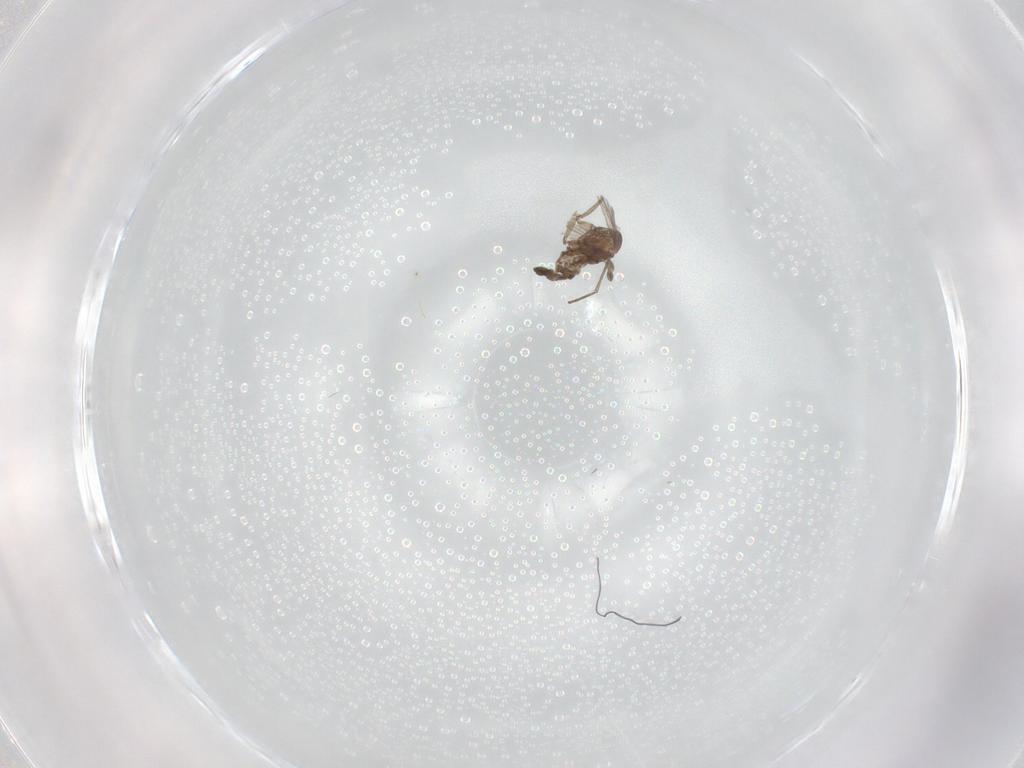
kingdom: Animalia
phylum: Arthropoda
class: Insecta
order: Diptera
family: Sciaridae
